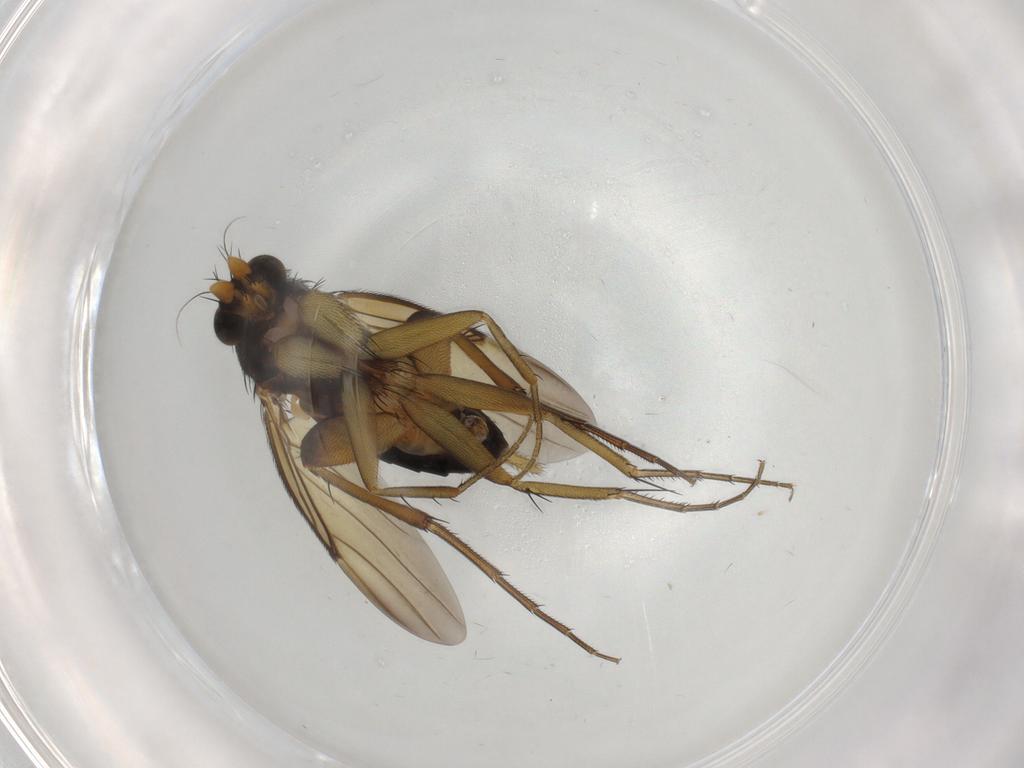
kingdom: Animalia
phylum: Arthropoda
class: Insecta
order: Diptera
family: Phoridae
